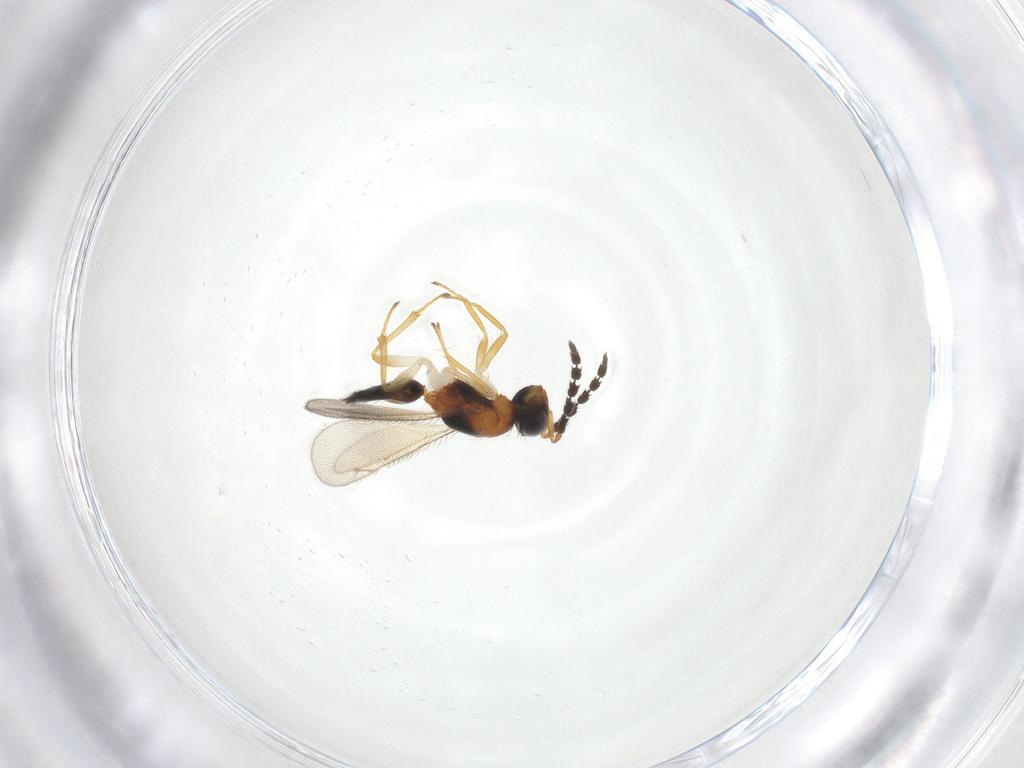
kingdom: Animalia
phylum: Arthropoda
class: Insecta
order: Hymenoptera
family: Eulophidae
